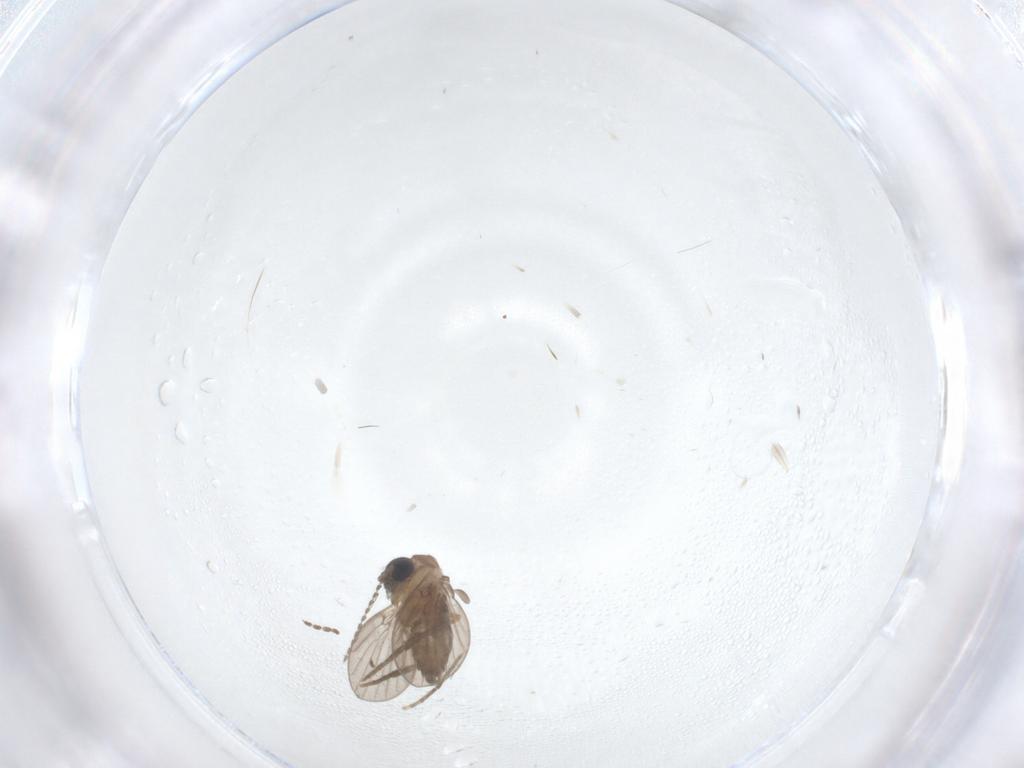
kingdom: Animalia
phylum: Arthropoda
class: Insecta
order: Diptera
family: Chironomidae
